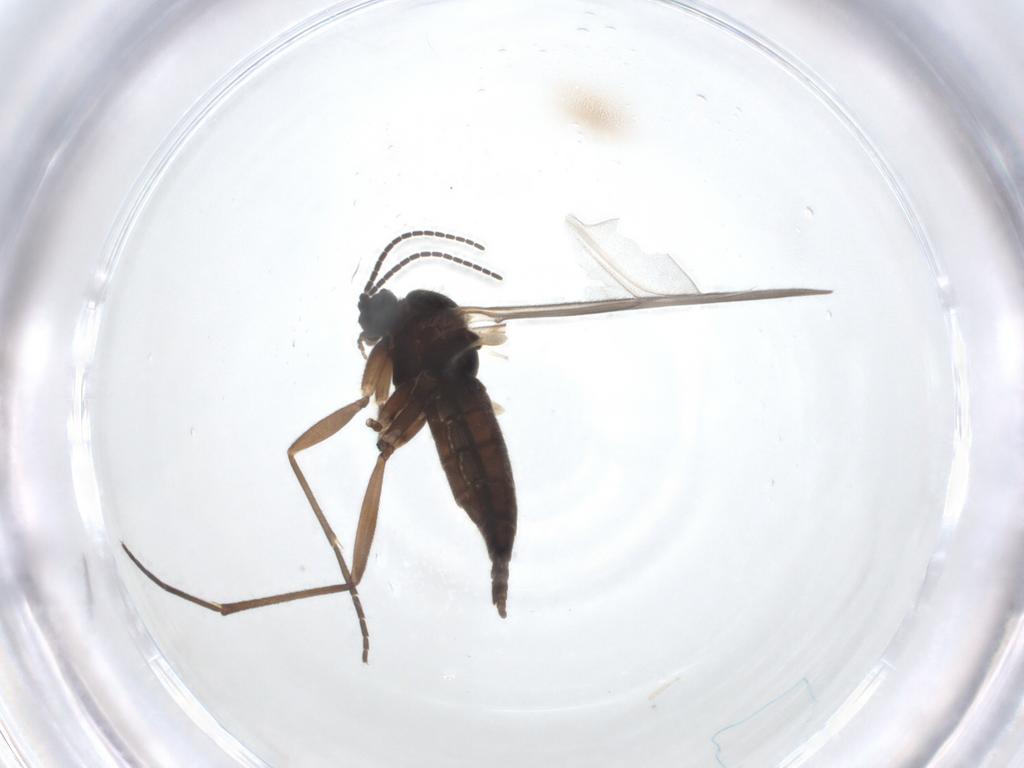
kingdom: Animalia
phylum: Arthropoda
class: Insecta
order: Diptera
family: Sciaridae
